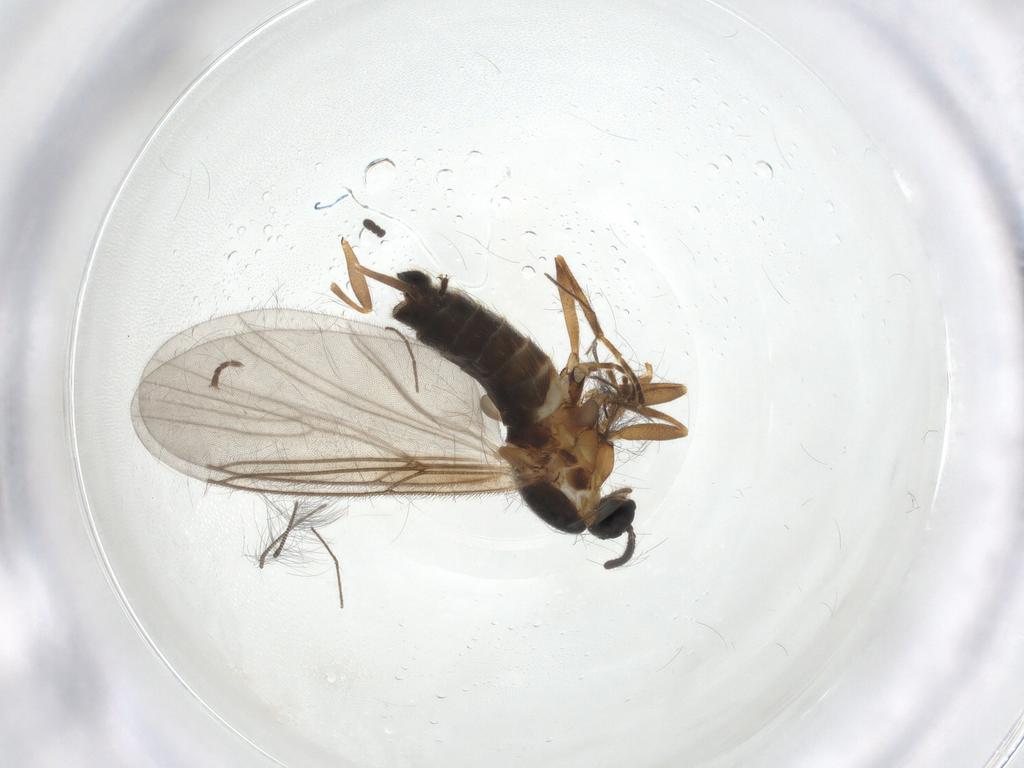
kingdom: Animalia
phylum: Arthropoda
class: Insecta
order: Diptera
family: Scatopsidae
